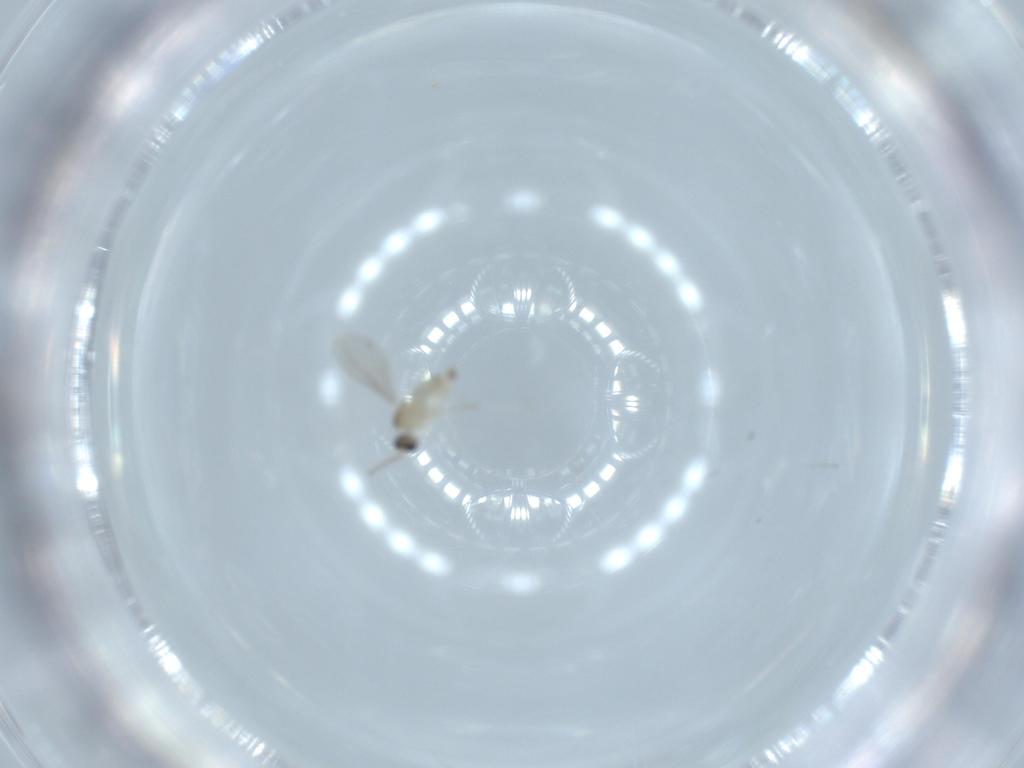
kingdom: Animalia
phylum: Arthropoda
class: Insecta
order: Diptera
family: Sciaridae
